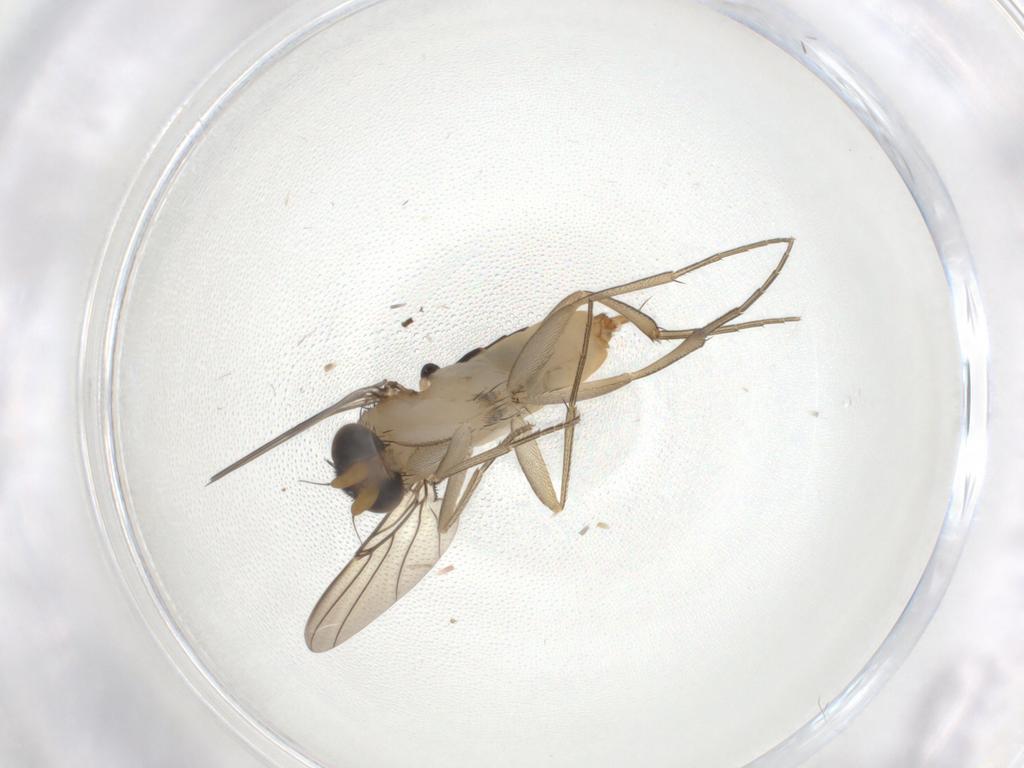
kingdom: Animalia
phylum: Arthropoda
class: Insecta
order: Diptera
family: Phoridae
